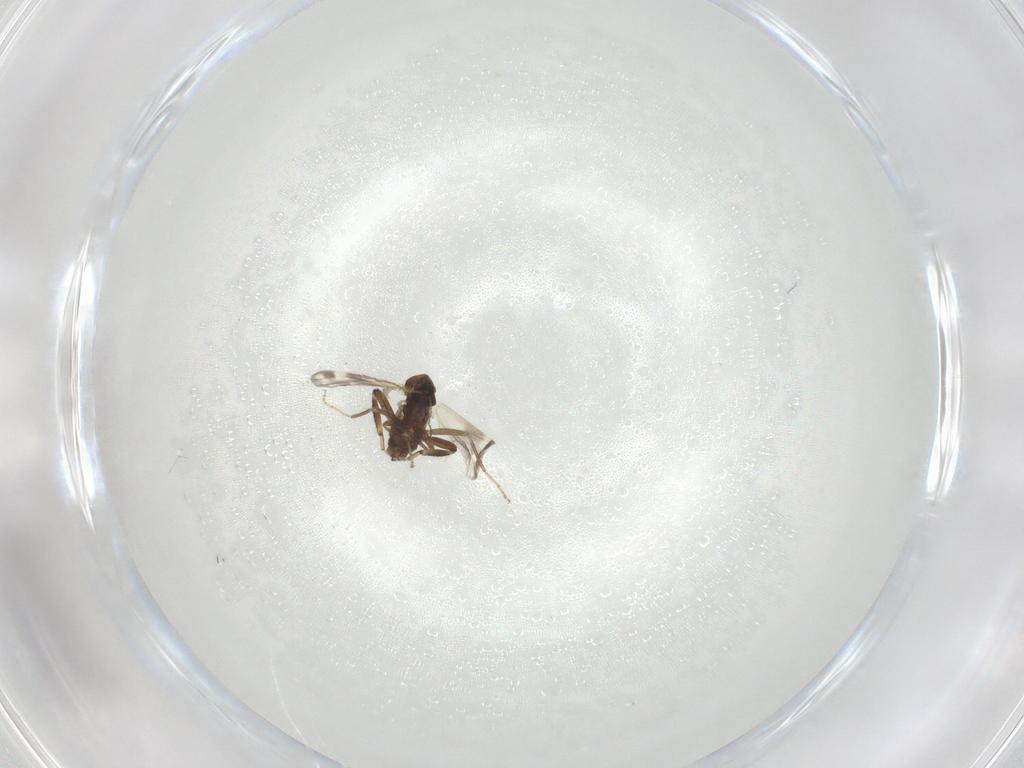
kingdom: Animalia
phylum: Arthropoda
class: Insecta
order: Diptera
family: Ceratopogonidae
